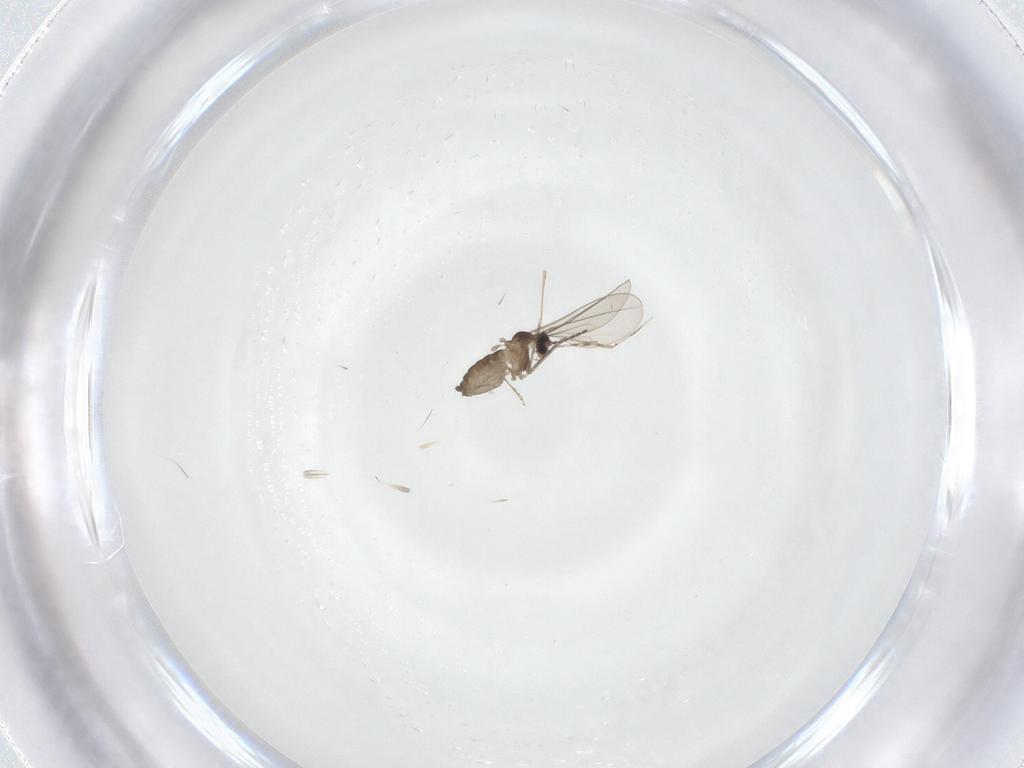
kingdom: Animalia
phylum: Arthropoda
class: Insecta
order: Diptera
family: Cecidomyiidae
